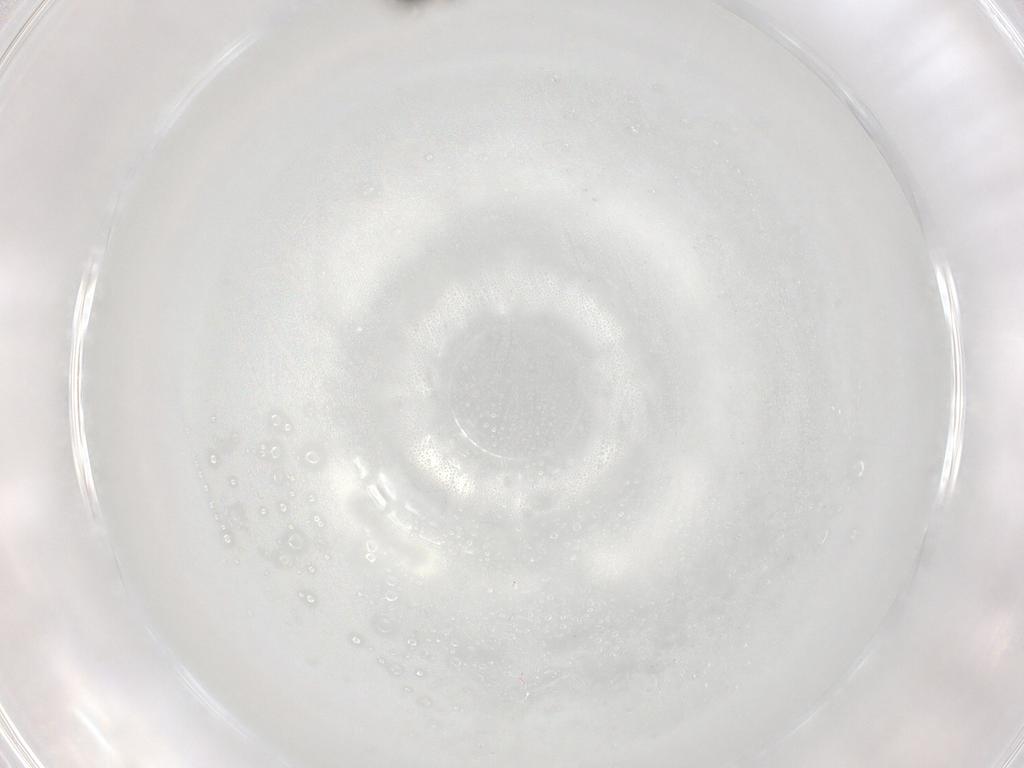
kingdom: Animalia
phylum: Arthropoda
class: Insecta
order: Diptera
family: Ceratopogonidae
